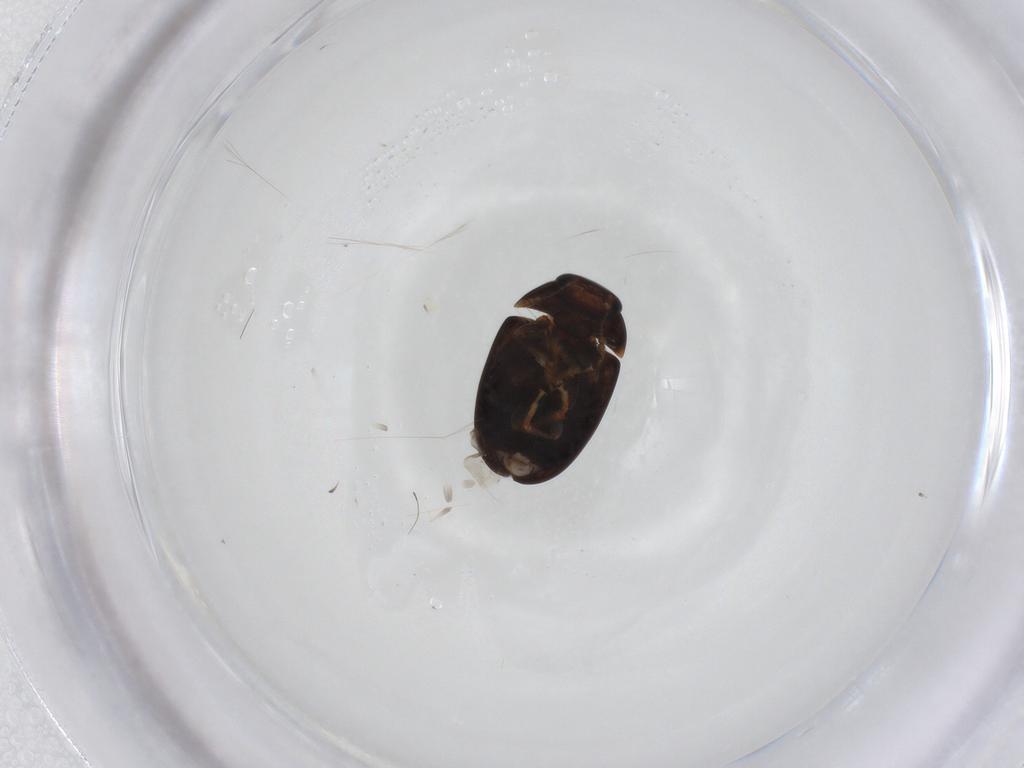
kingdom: Animalia
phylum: Arthropoda
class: Insecta
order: Coleoptera
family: Phalacridae
